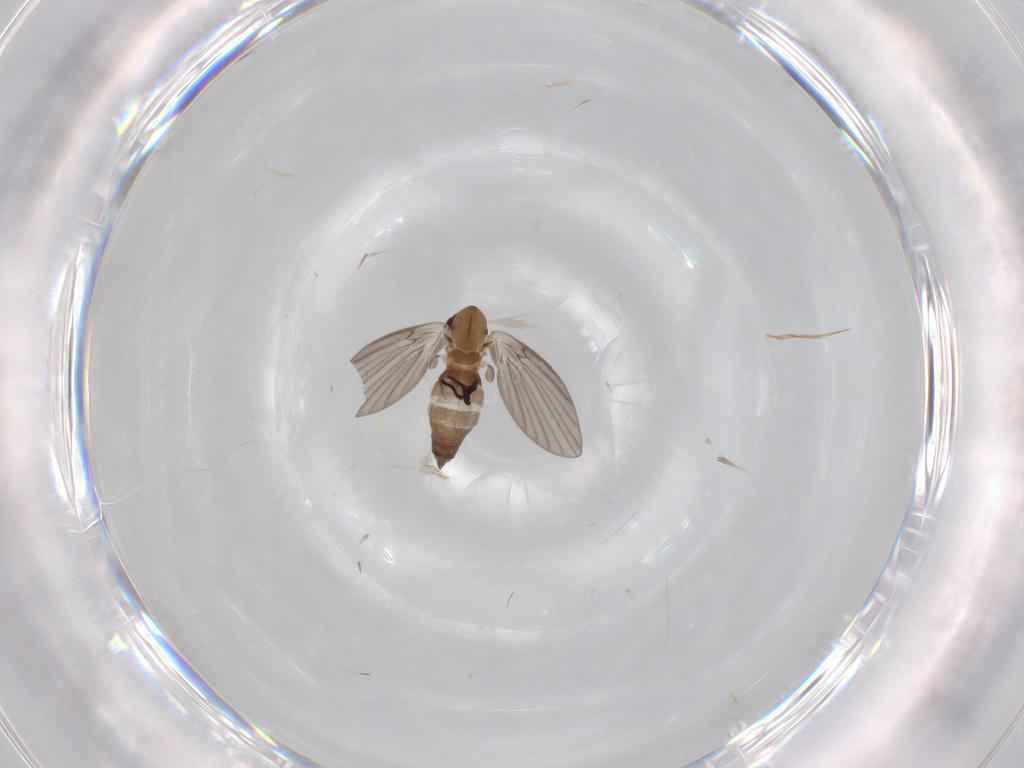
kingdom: Animalia
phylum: Arthropoda
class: Insecta
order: Diptera
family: Cecidomyiidae
